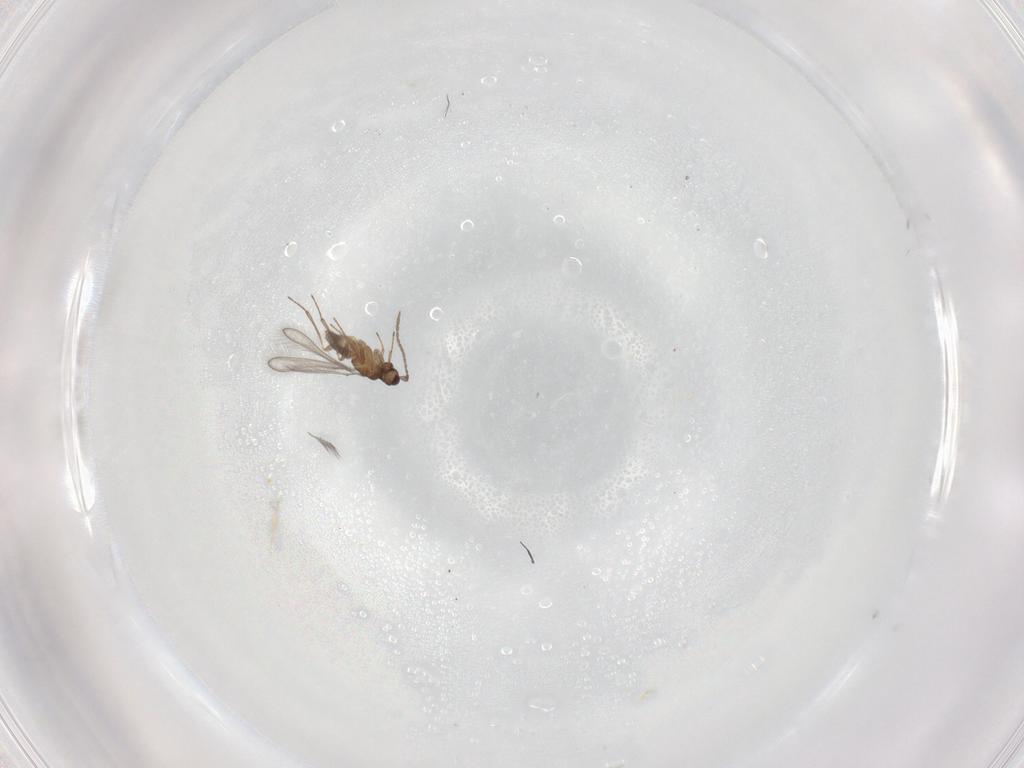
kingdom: Animalia
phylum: Arthropoda
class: Insecta
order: Hymenoptera
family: Mymaridae
